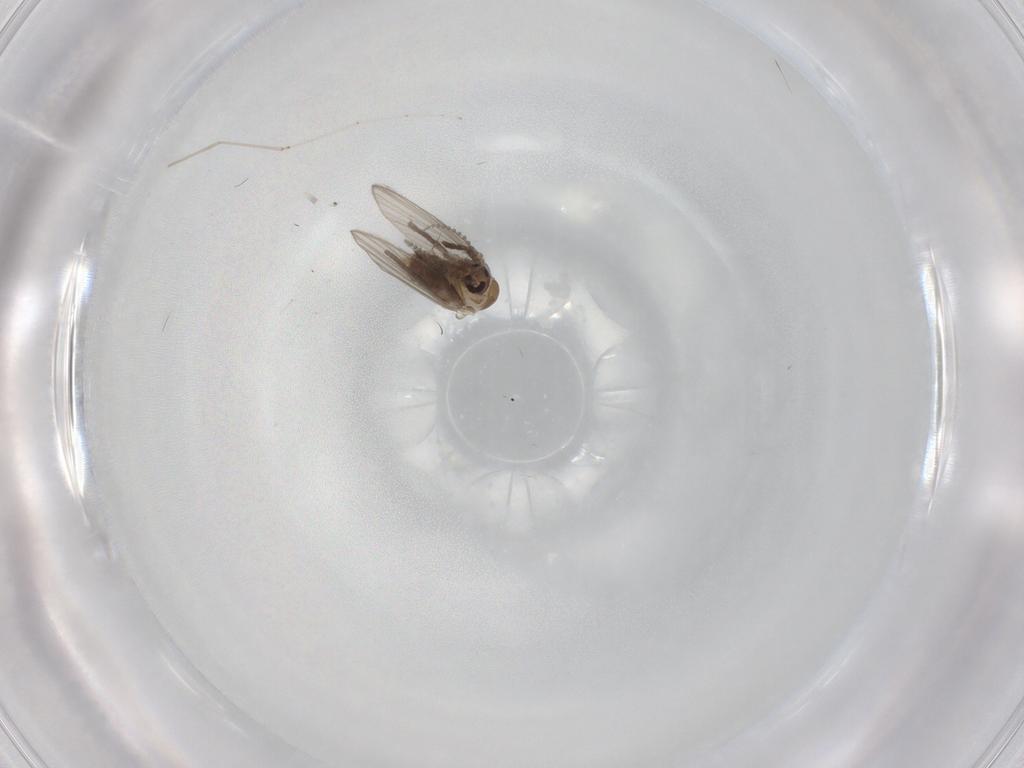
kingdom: Animalia
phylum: Arthropoda
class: Insecta
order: Diptera
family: Psychodidae
